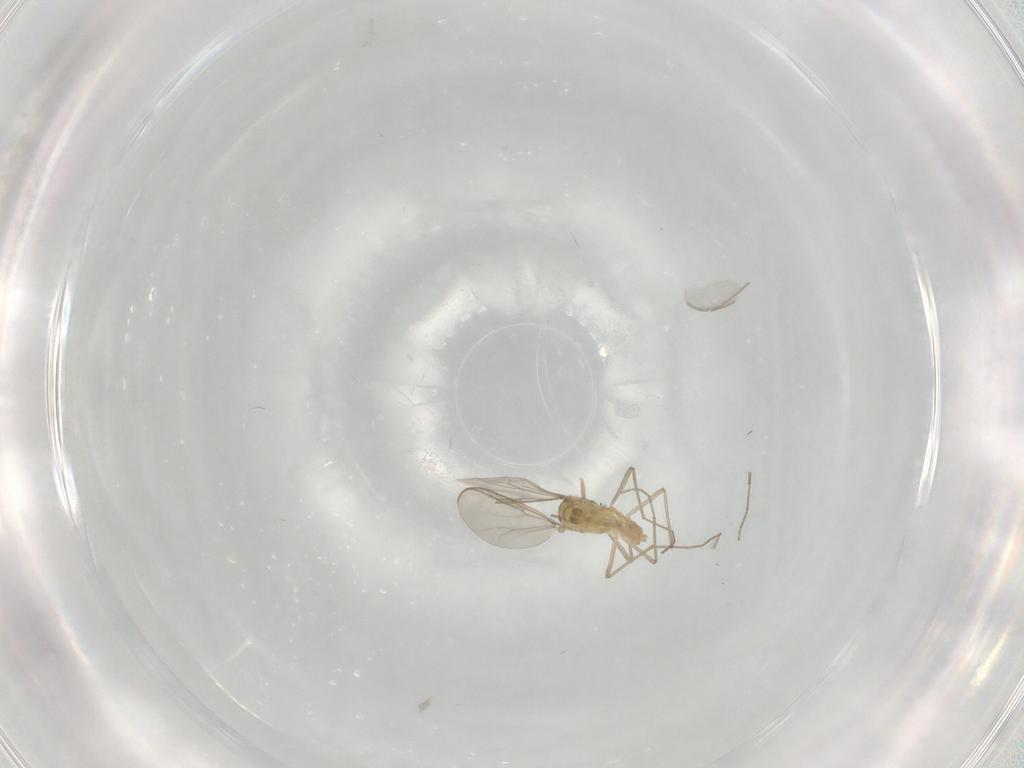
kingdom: Animalia
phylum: Arthropoda
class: Insecta
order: Diptera
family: Chironomidae
